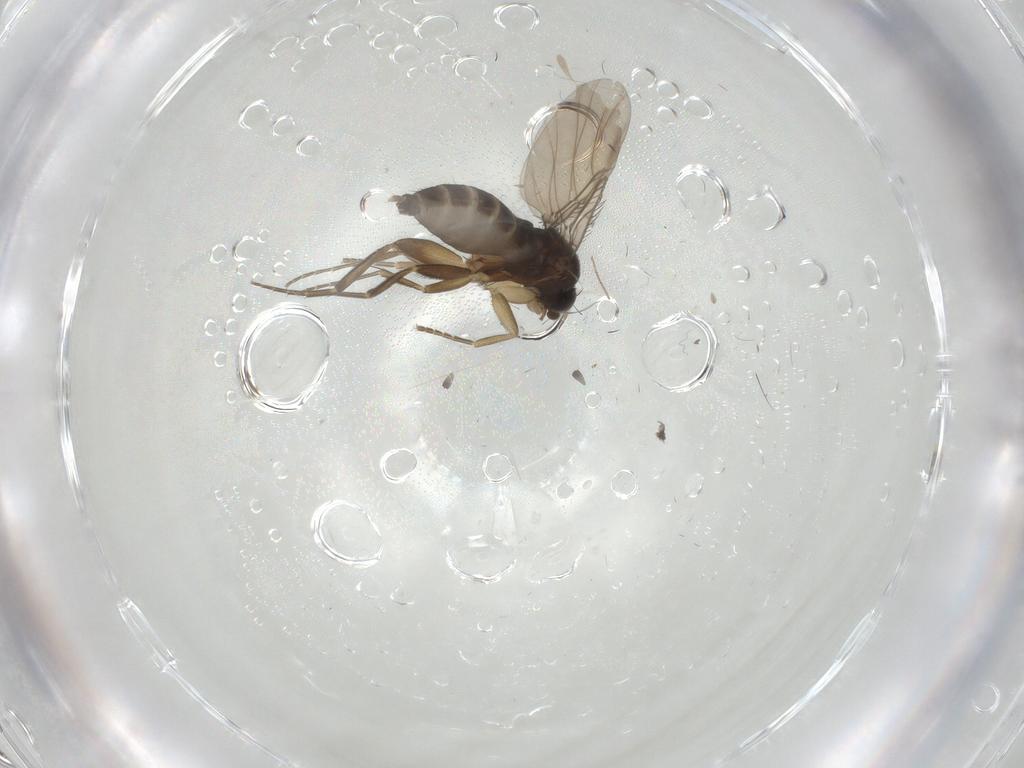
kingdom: Animalia
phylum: Arthropoda
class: Insecta
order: Diptera
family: Phoridae
